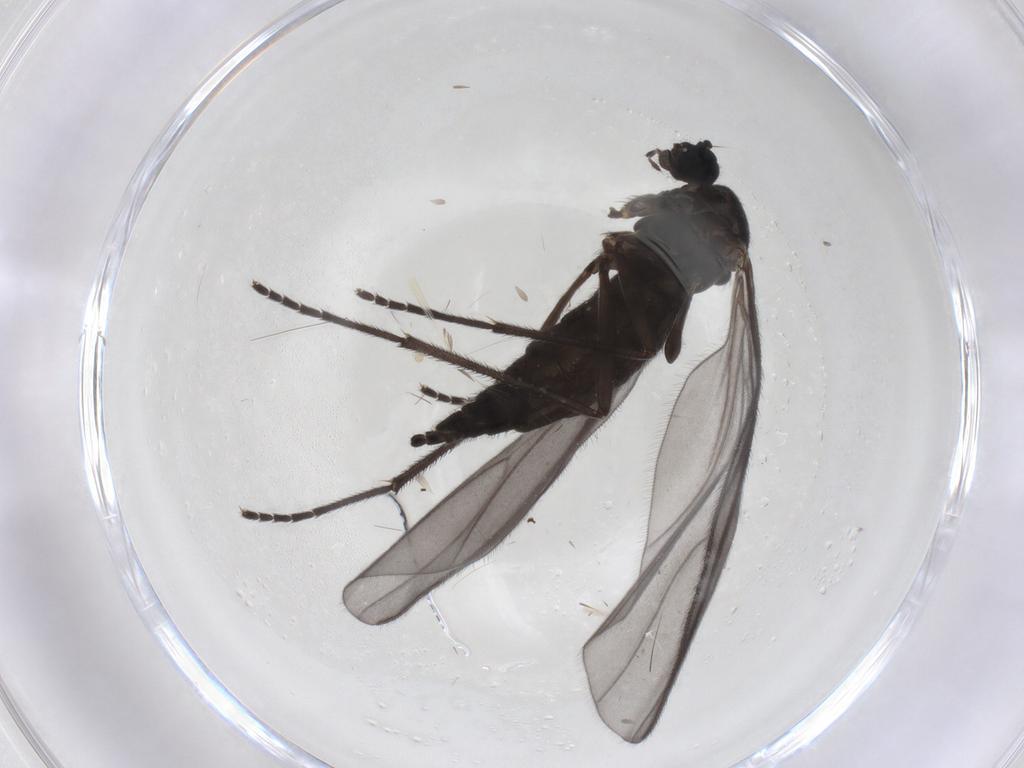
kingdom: Animalia
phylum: Arthropoda
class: Insecta
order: Diptera
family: Sciaridae
